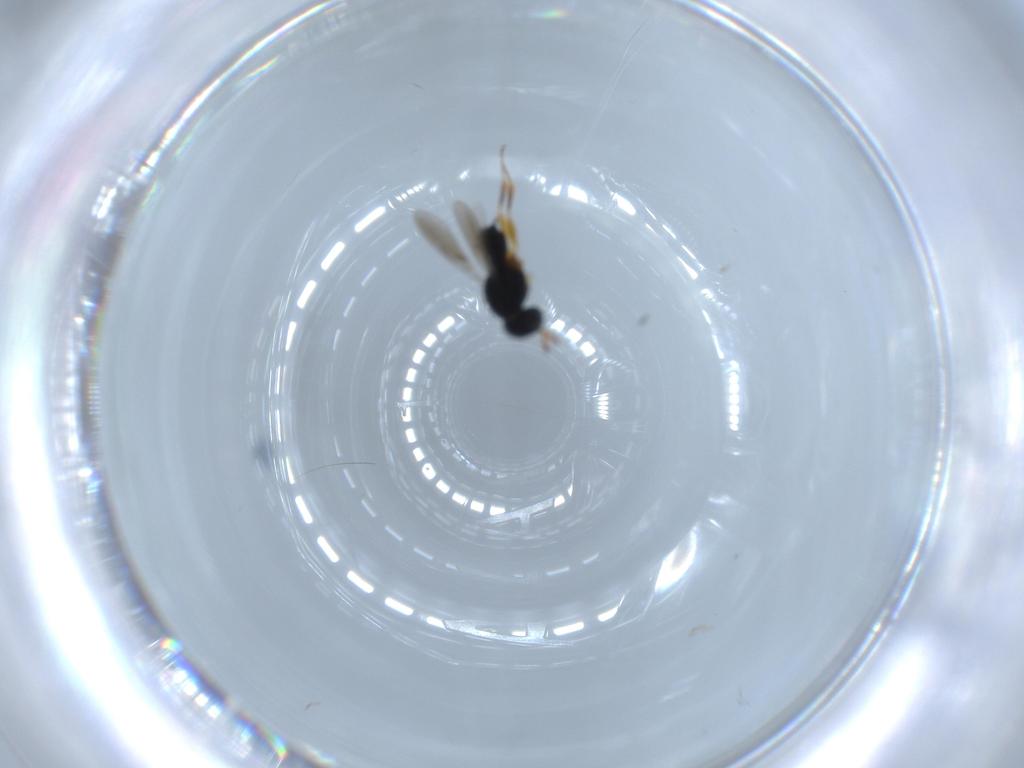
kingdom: Animalia
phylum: Arthropoda
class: Insecta
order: Hymenoptera
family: Scelionidae
